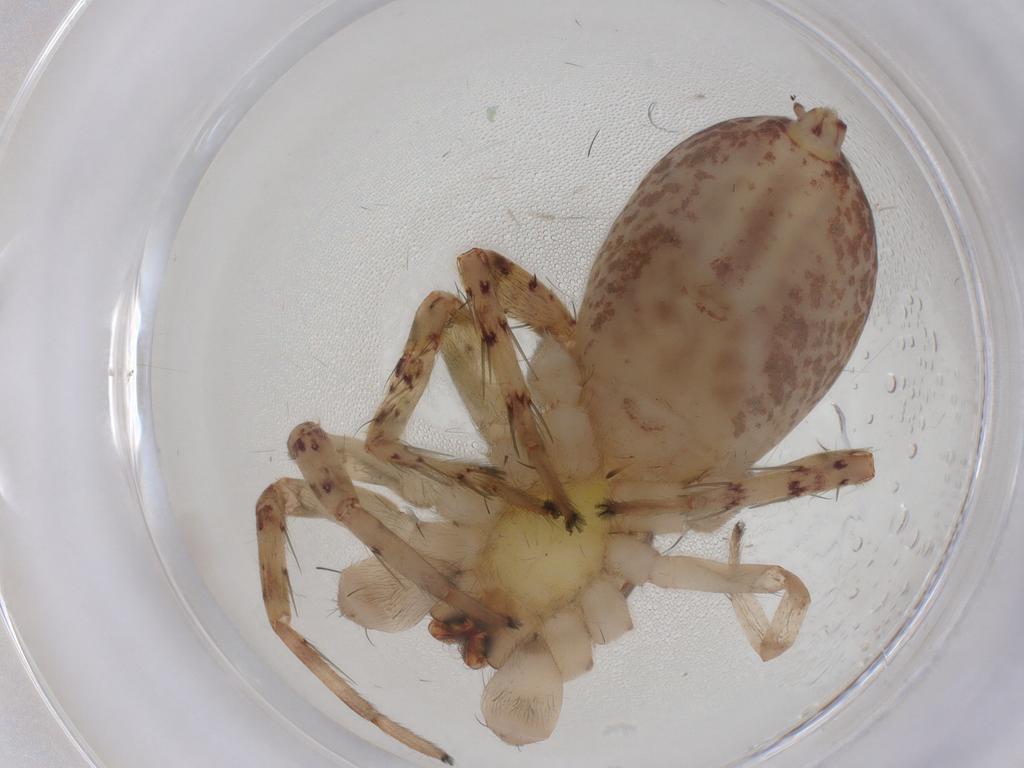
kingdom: Animalia
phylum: Arthropoda
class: Arachnida
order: Araneae
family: Anyphaenidae
